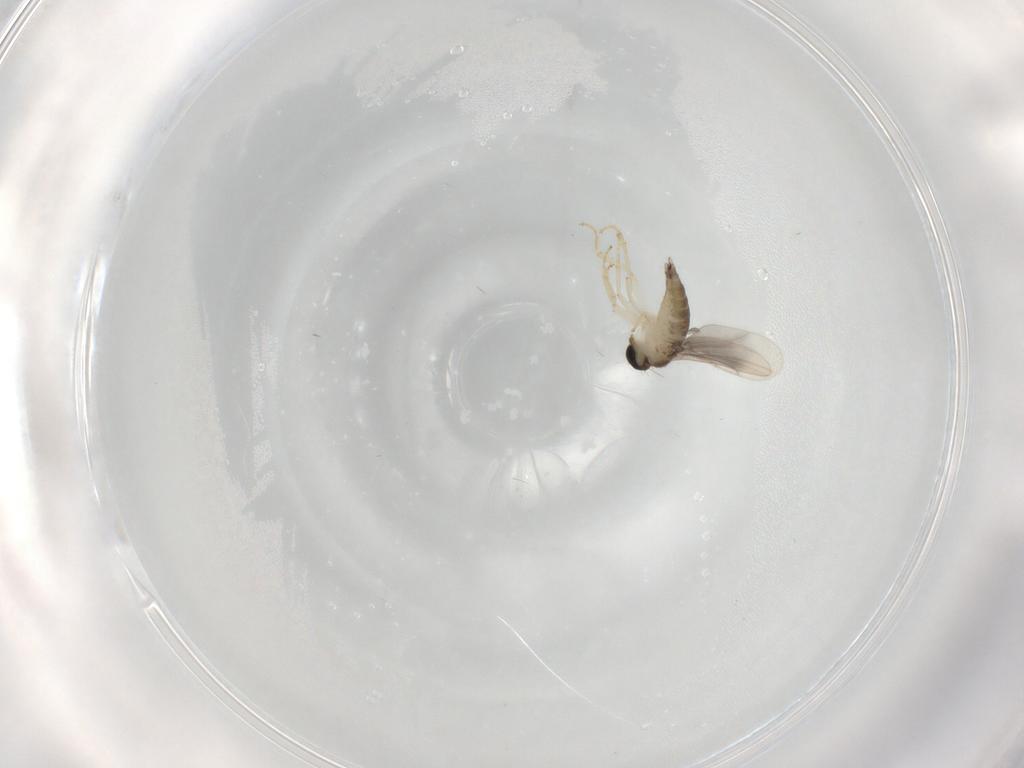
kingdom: Animalia
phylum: Arthropoda
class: Insecta
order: Diptera
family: Hybotidae
